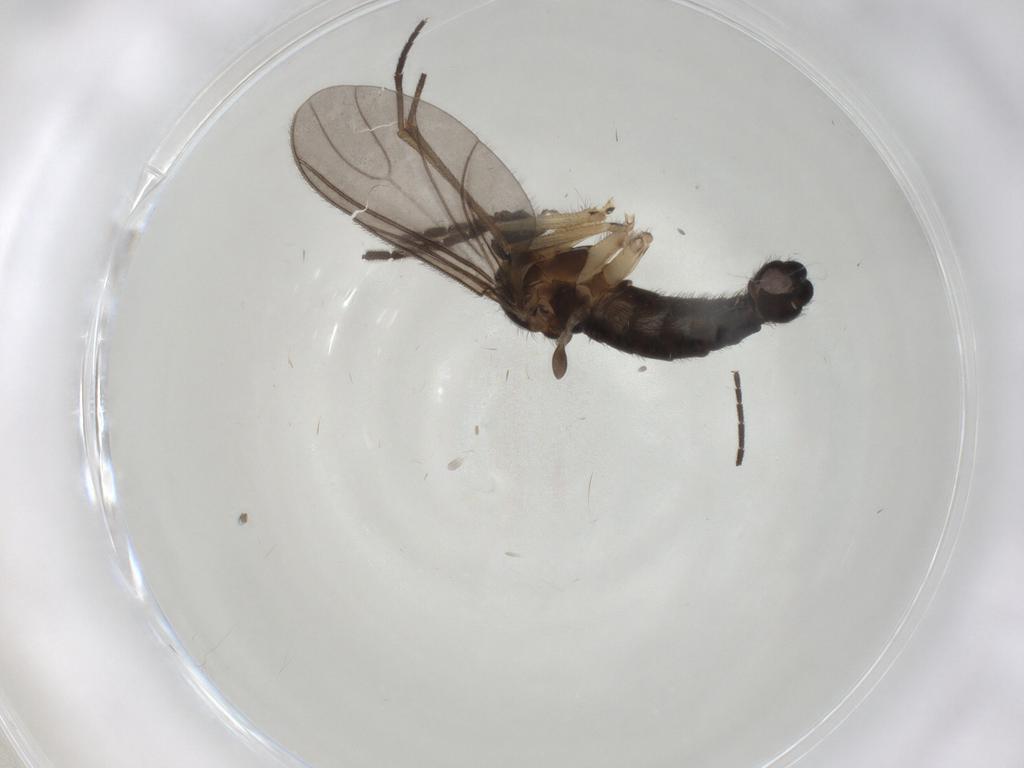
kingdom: Animalia
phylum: Arthropoda
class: Insecta
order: Diptera
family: Sciaridae
